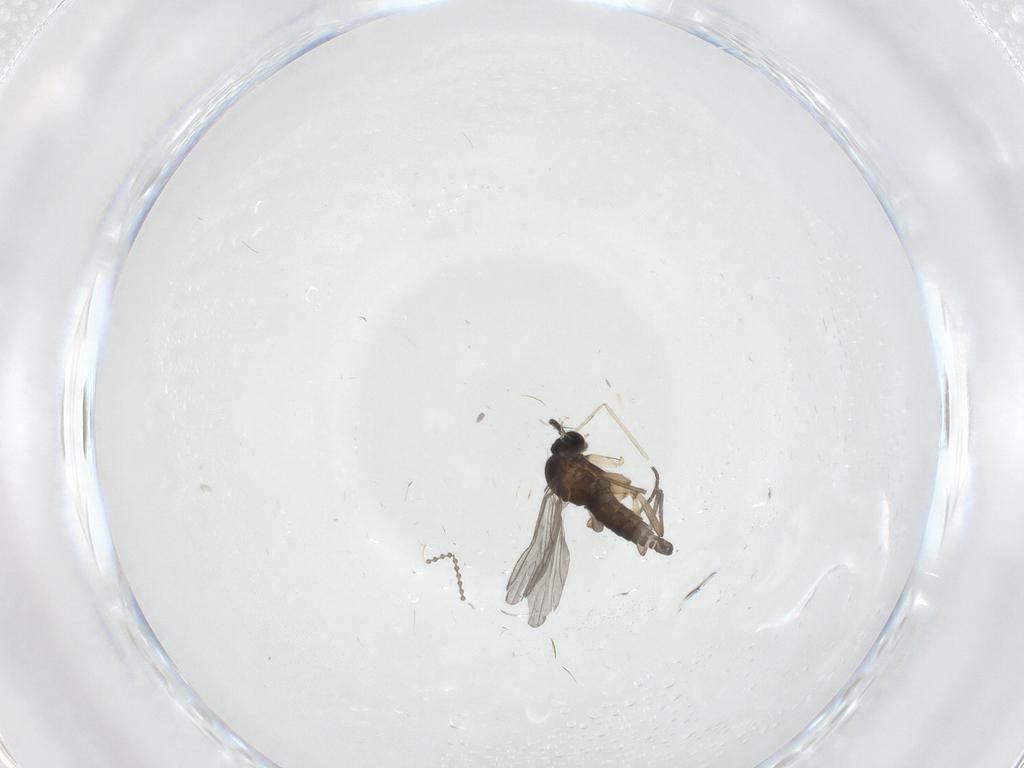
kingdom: Animalia
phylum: Arthropoda
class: Insecta
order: Diptera
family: Sciaridae
